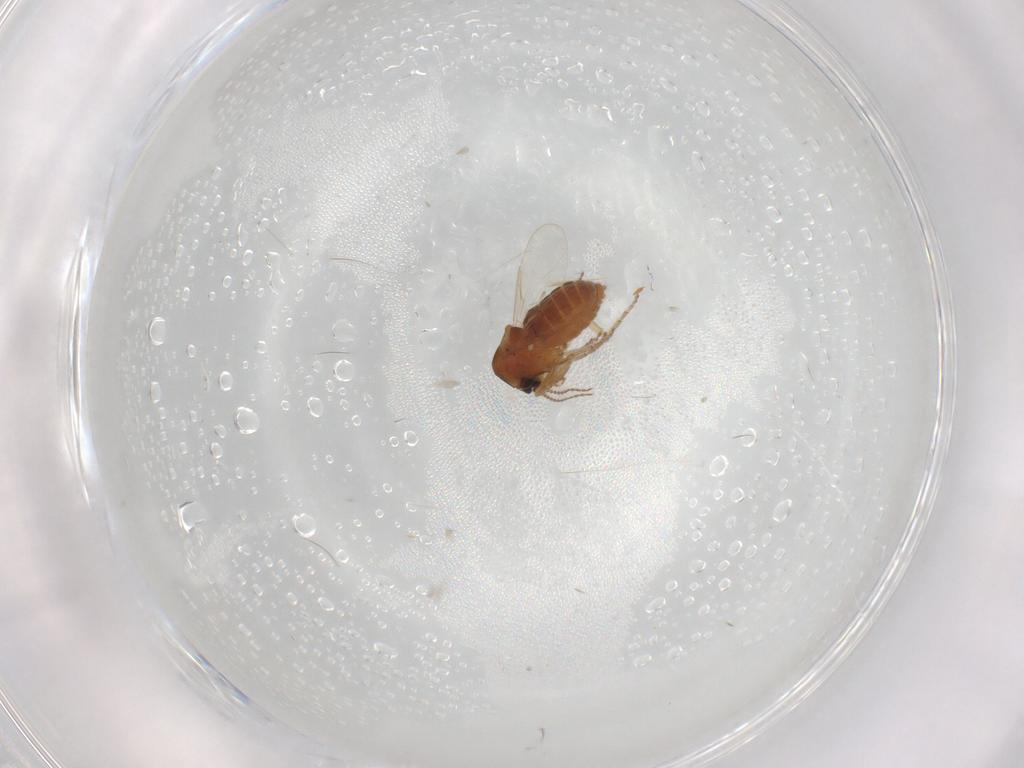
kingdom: Animalia
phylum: Arthropoda
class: Insecta
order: Diptera
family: Ceratopogonidae
